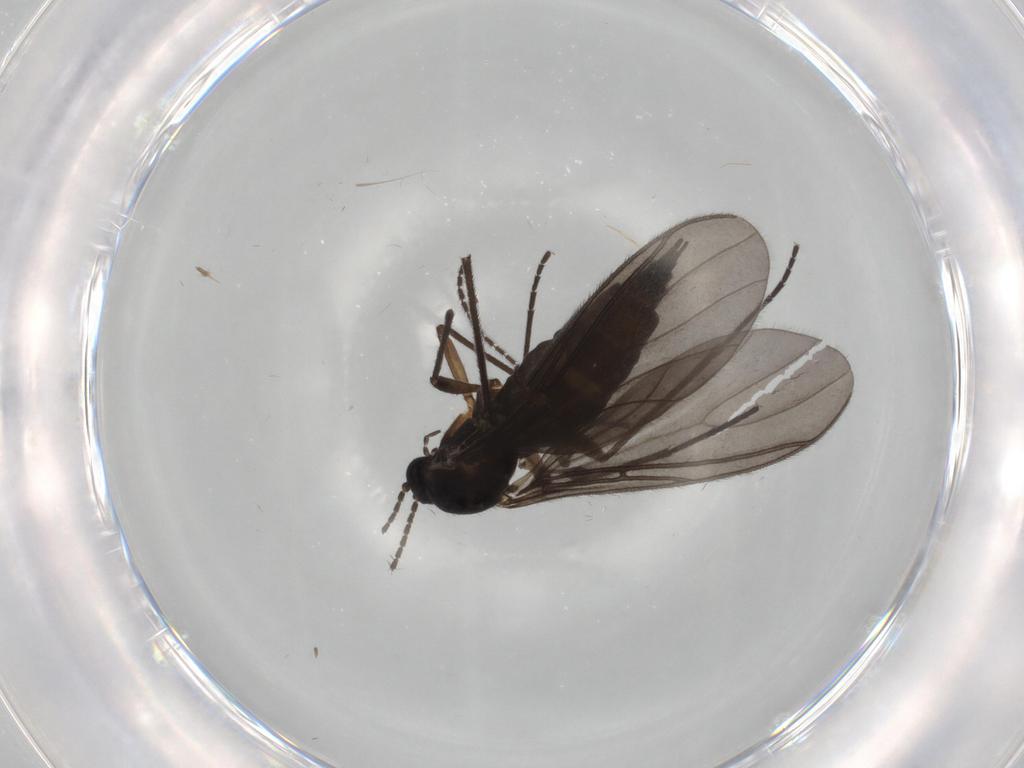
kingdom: Animalia
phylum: Arthropoda
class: Insecta
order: Diptera
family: Sciaridae
